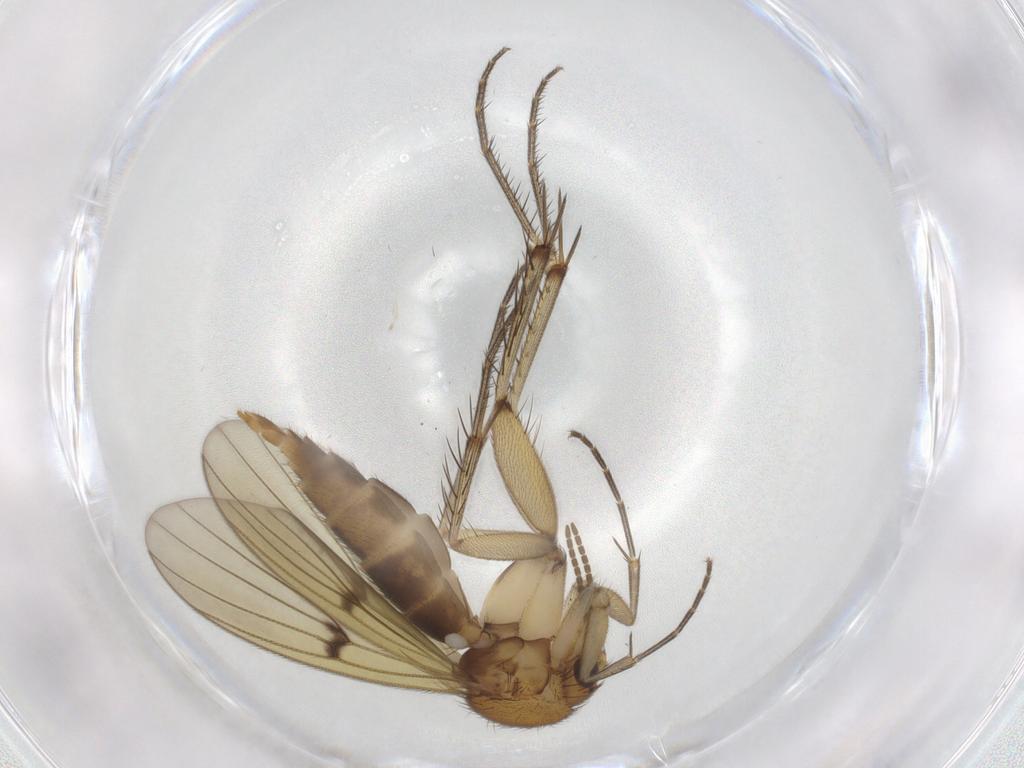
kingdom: Animalia
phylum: Arthropoda
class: Insecta
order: Diptera
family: Mycetophilidae
